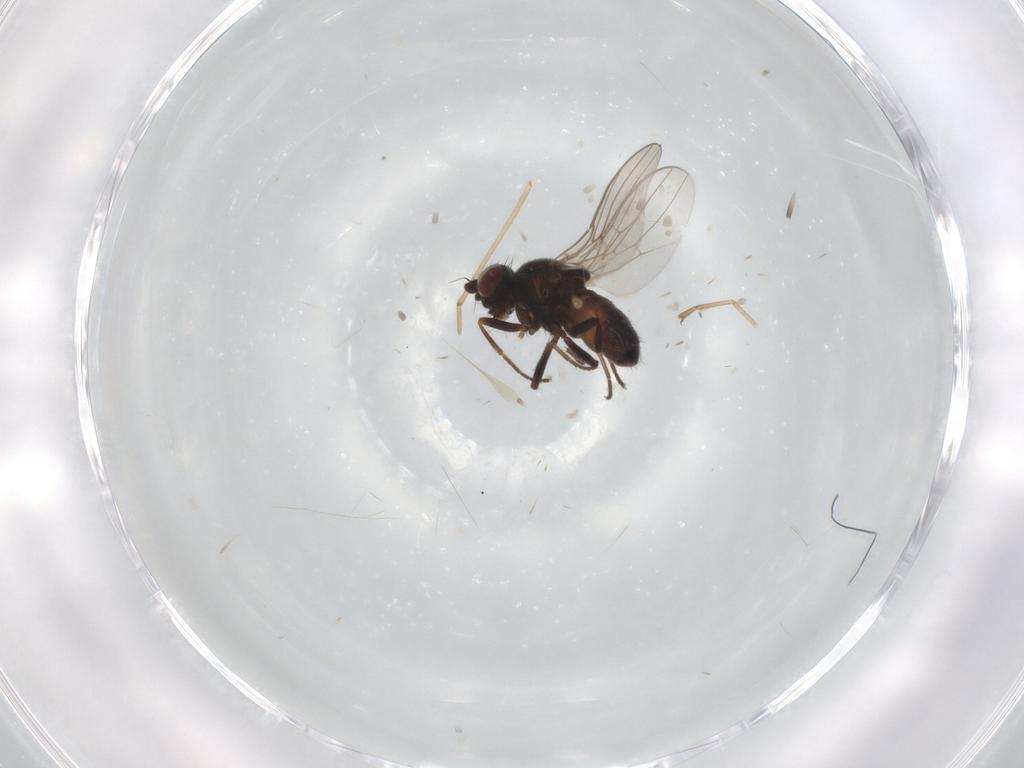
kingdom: Animalia
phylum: Arthropoda
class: Insecta
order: Diptera
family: Chloropidae
